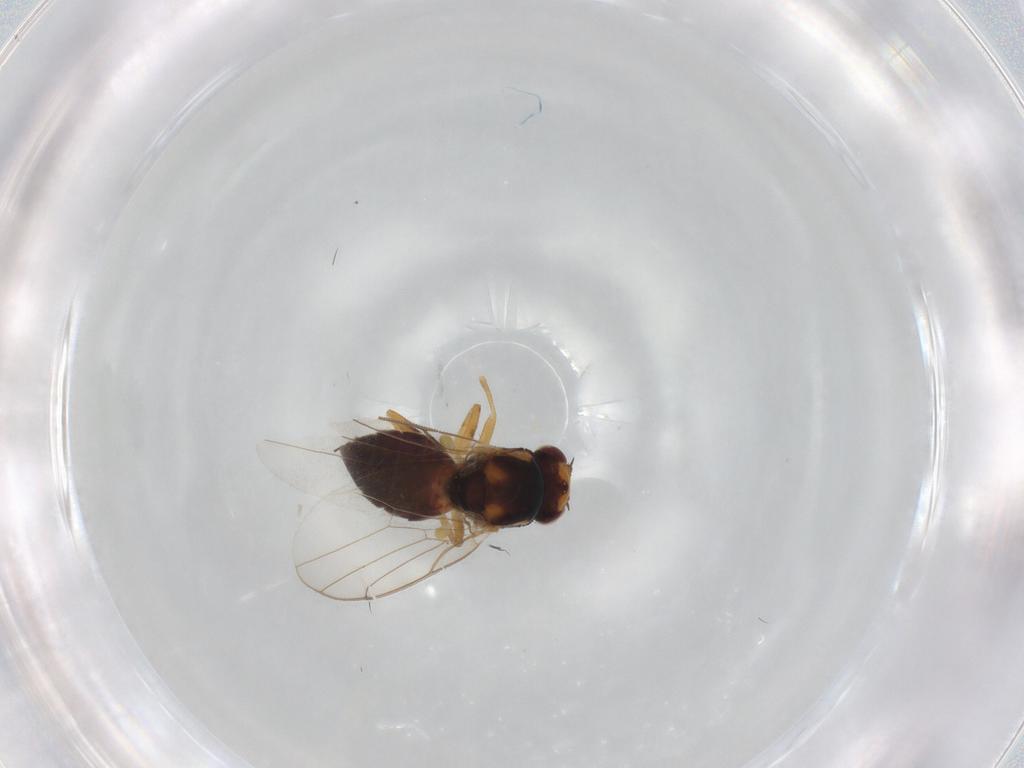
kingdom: Animalia
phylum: Arthropoda
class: Insecta
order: Diptera
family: Chloropidae
